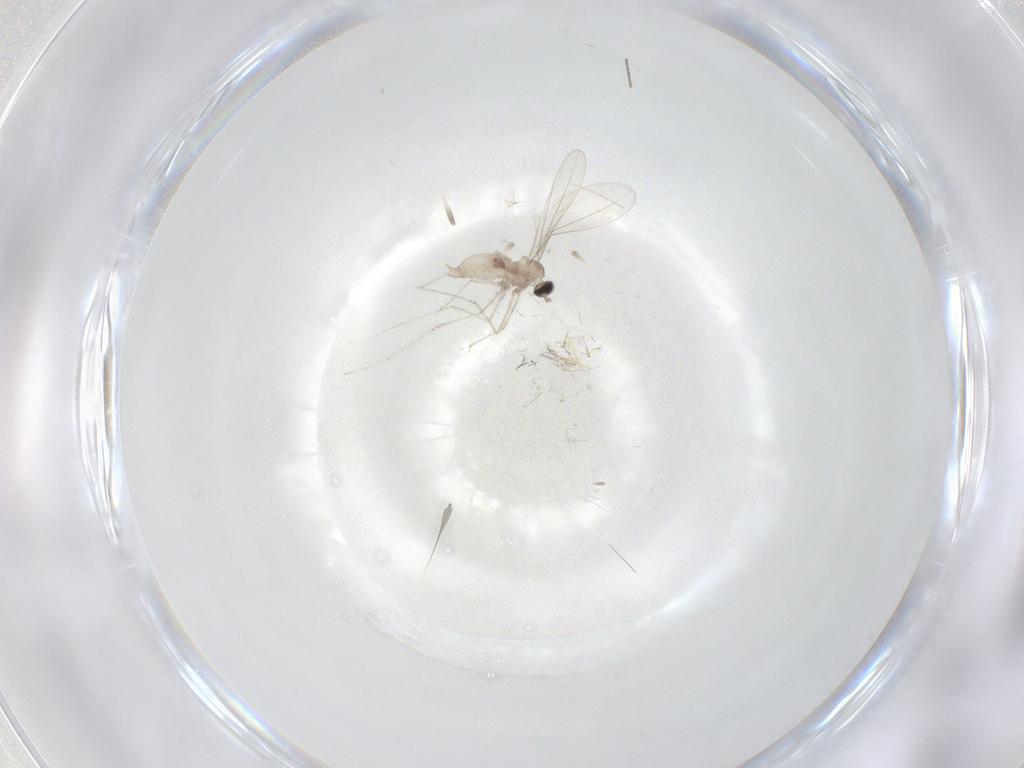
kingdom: Animalia
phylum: Arthropoda
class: Insecta
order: Diptera
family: Cecidomyiidae
